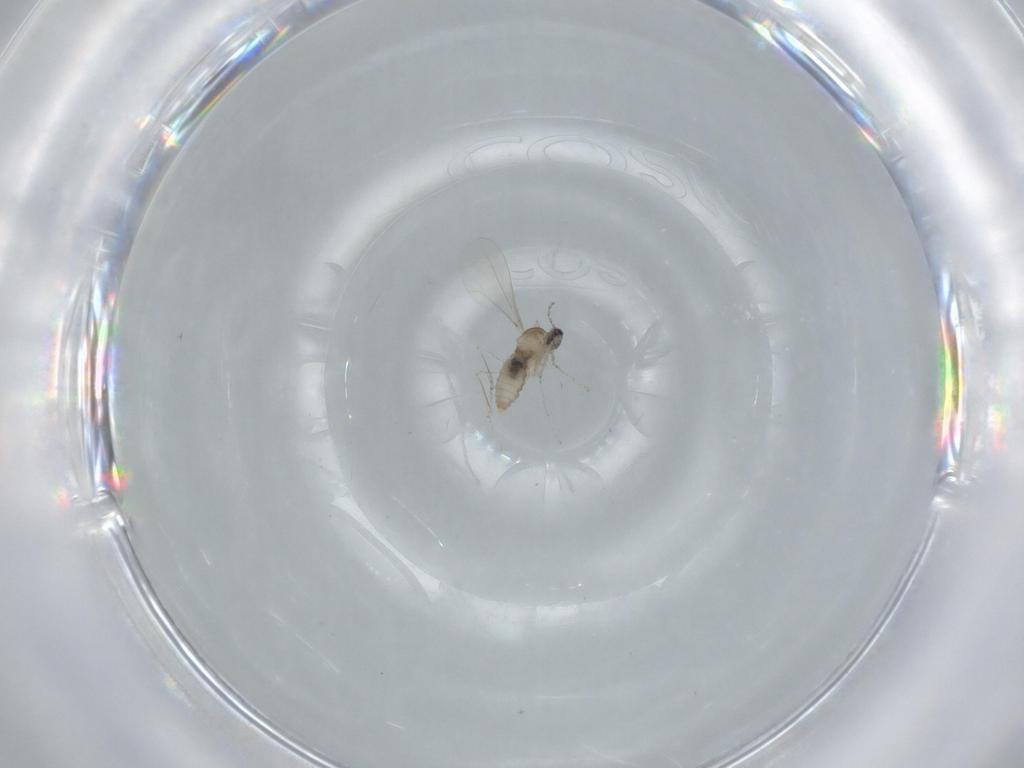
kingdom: Animalia
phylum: Arthropoda
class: Insecta
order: Diptera
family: Cecidomyiidae
